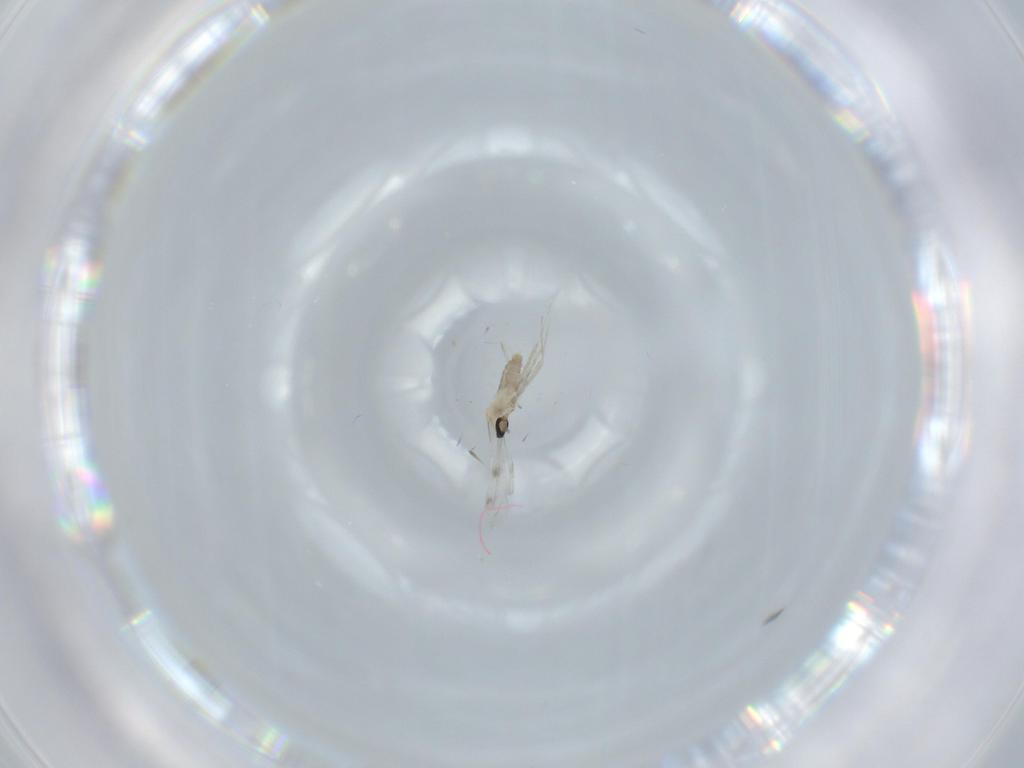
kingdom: Animalia
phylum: Arthropoda
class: Insecta
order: Diptera
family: Cecidomyiidae
